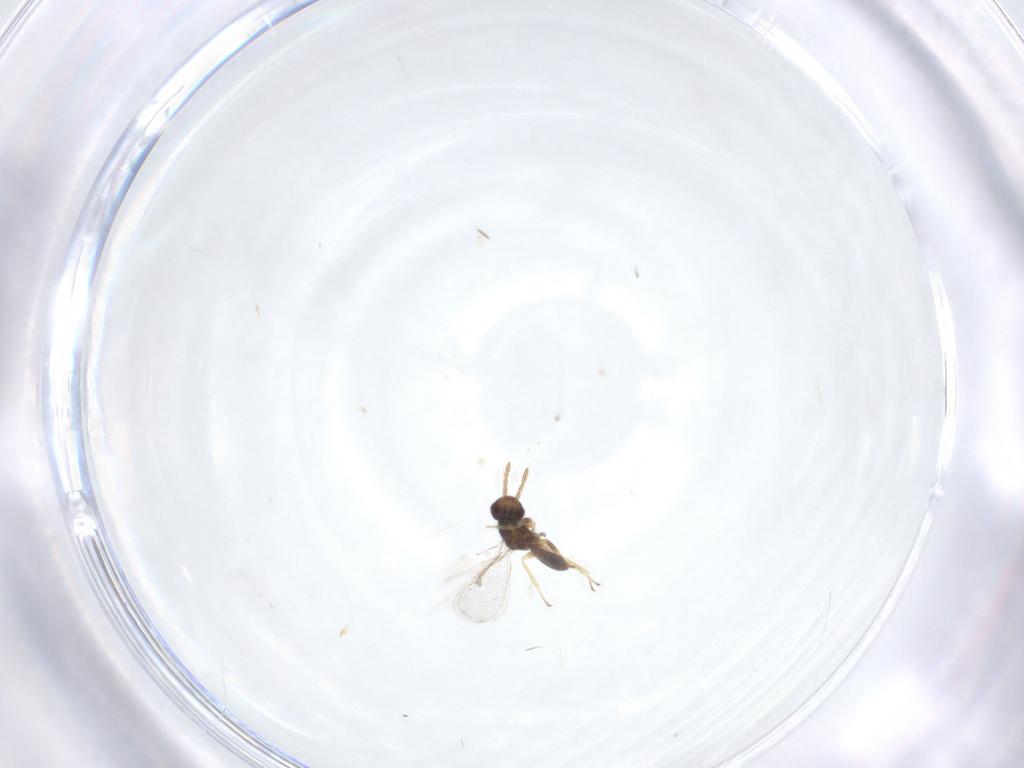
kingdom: Animalia
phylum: Arthropoda
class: Insecta
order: Hymenoptera
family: Eulophidae
